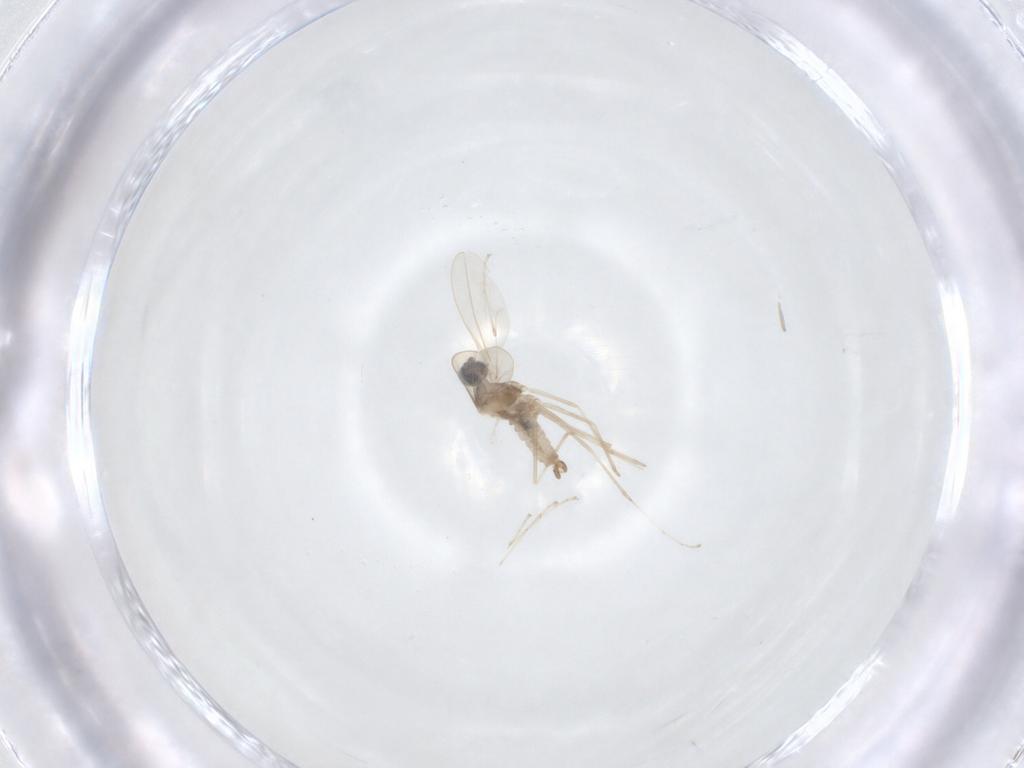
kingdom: Animalia
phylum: Arthropoda
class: Insecta
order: Diptera
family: Cecidomyiidae
